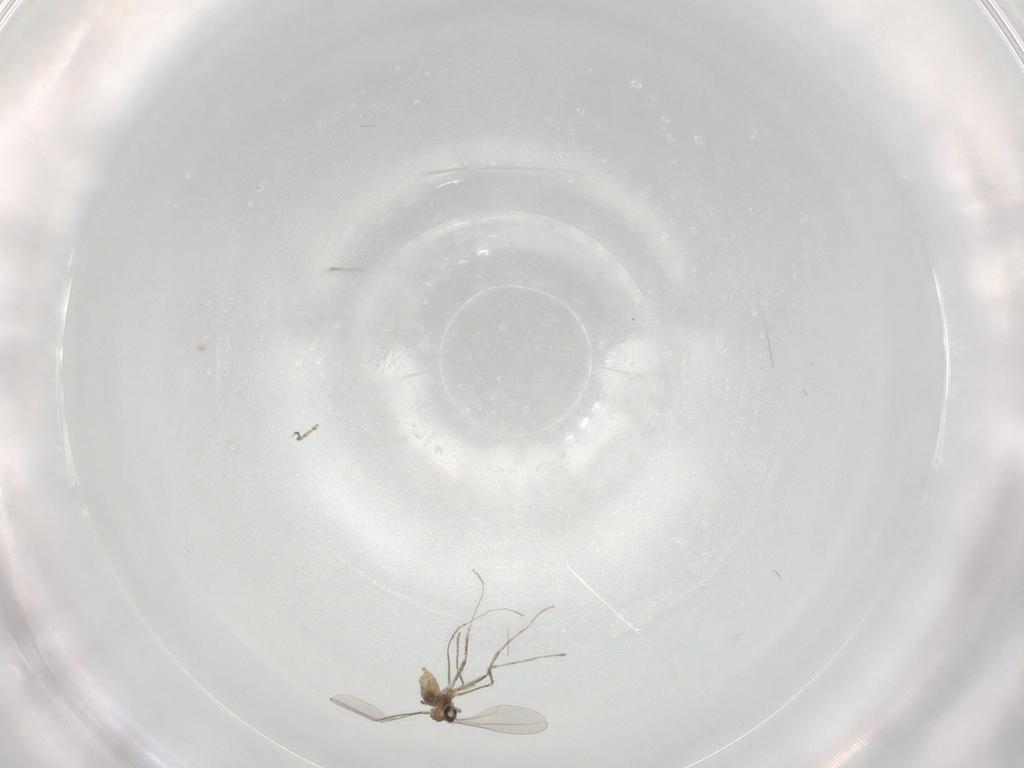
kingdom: Animalia
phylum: Arthropoda
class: Insecta
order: Diptera
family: Cecidomyiidae
